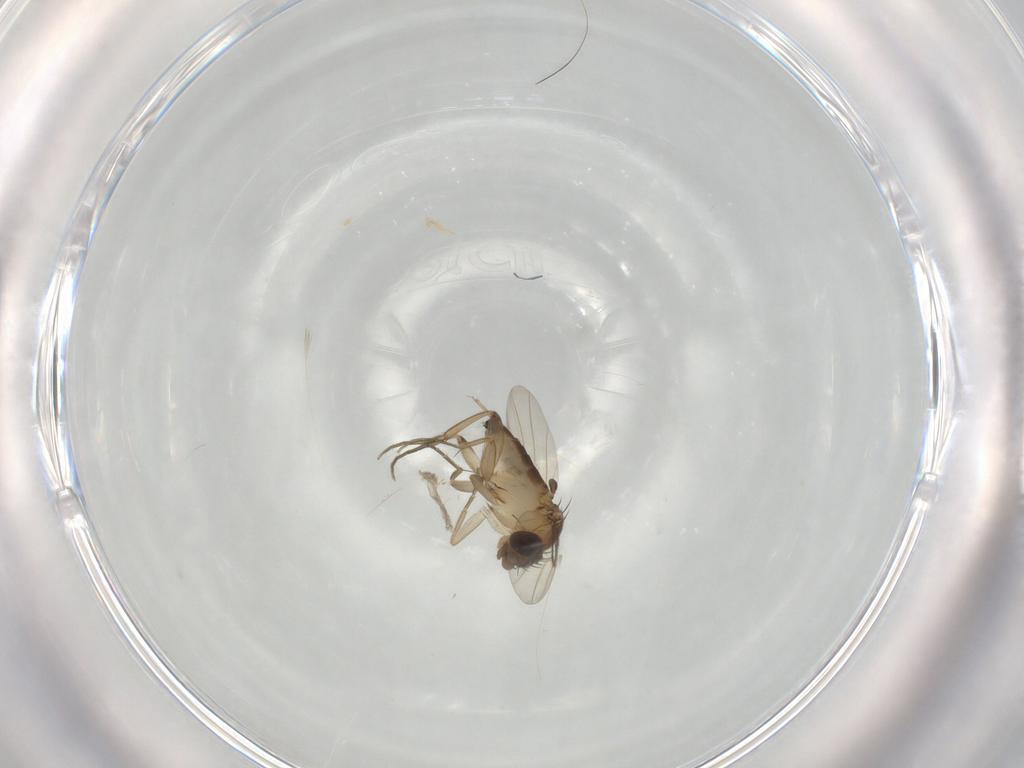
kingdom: Animalia
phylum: Arthropoda
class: Insecta
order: Diptera
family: Phoridae
